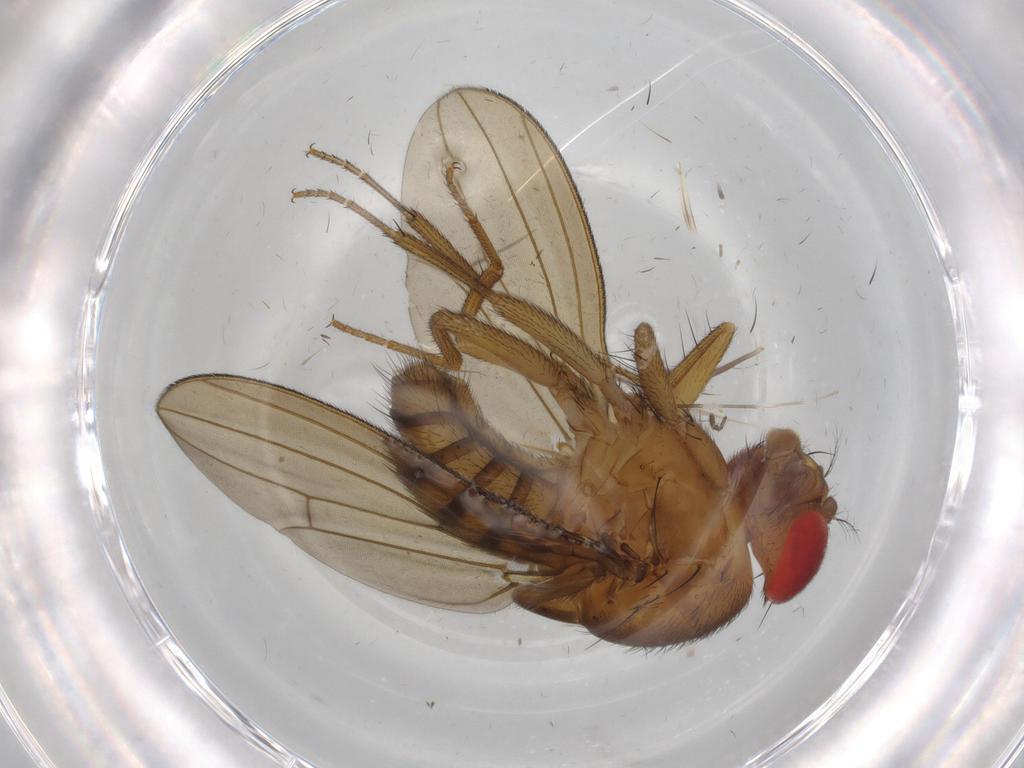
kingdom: Animalia
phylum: Arthropoda
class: Insecta
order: Diptera
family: Drosophilidae
